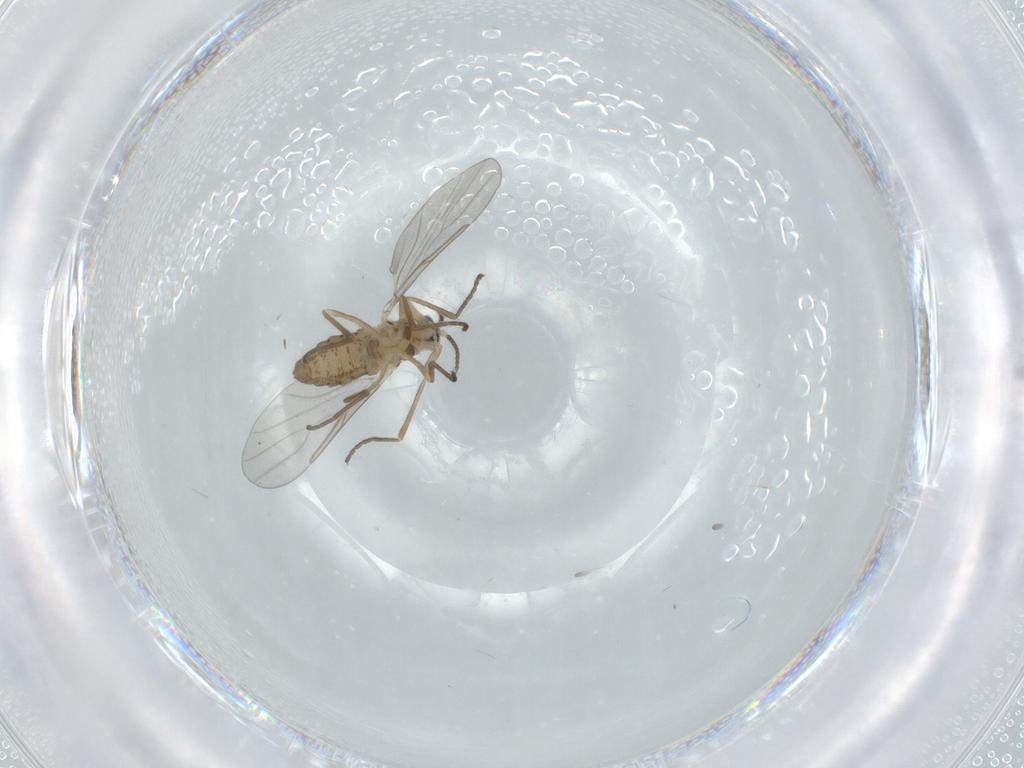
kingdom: Animalia
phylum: Arthropoda
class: Insecta
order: Diptera
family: Cecidomyiidae
